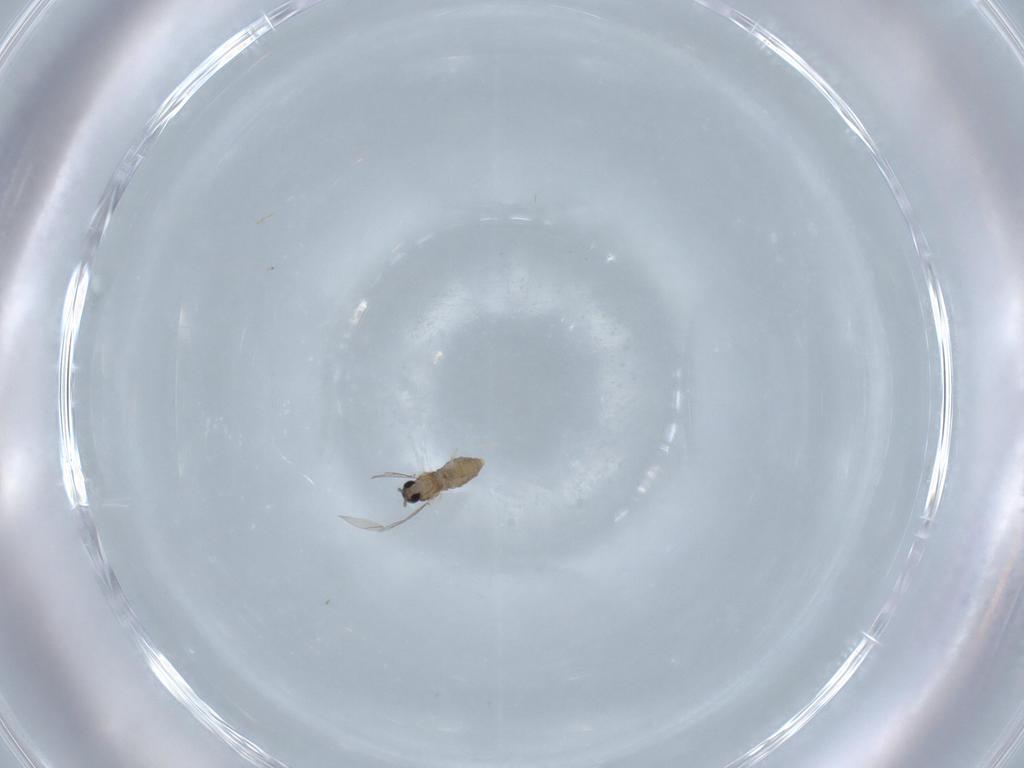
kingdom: Animalia
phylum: Arthropoda
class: Insecta
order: Diptera
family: Cecidomyiidae
